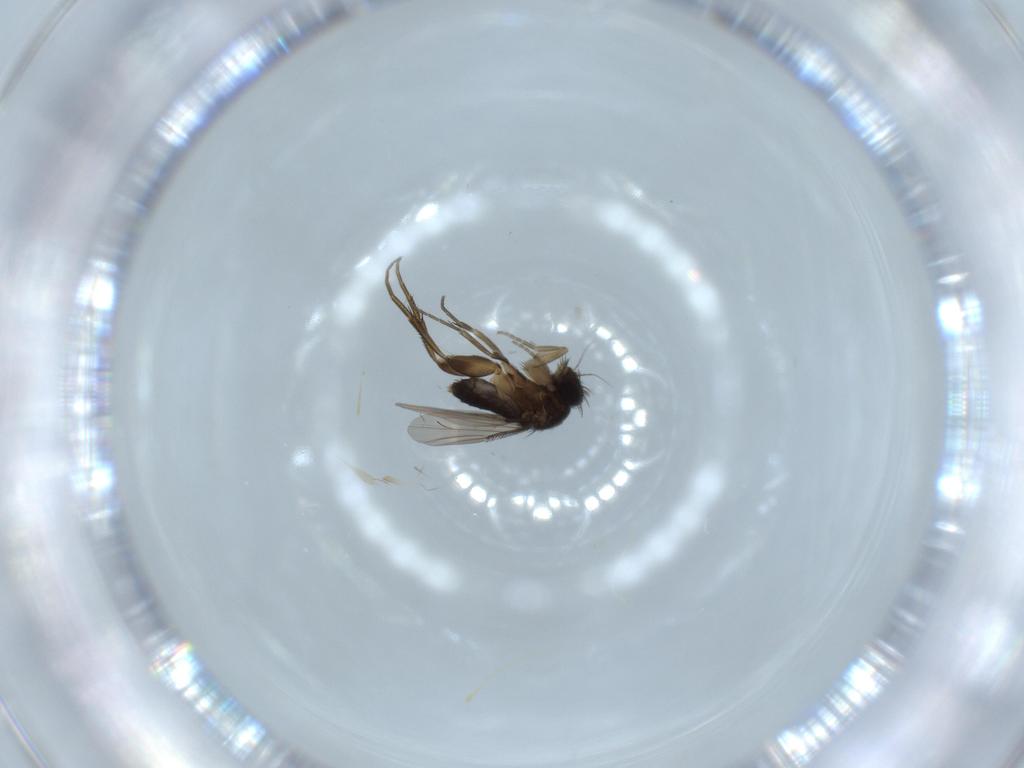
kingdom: Animalia
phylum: Arthropoda
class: Insecta
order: Diptera
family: Phoridae
